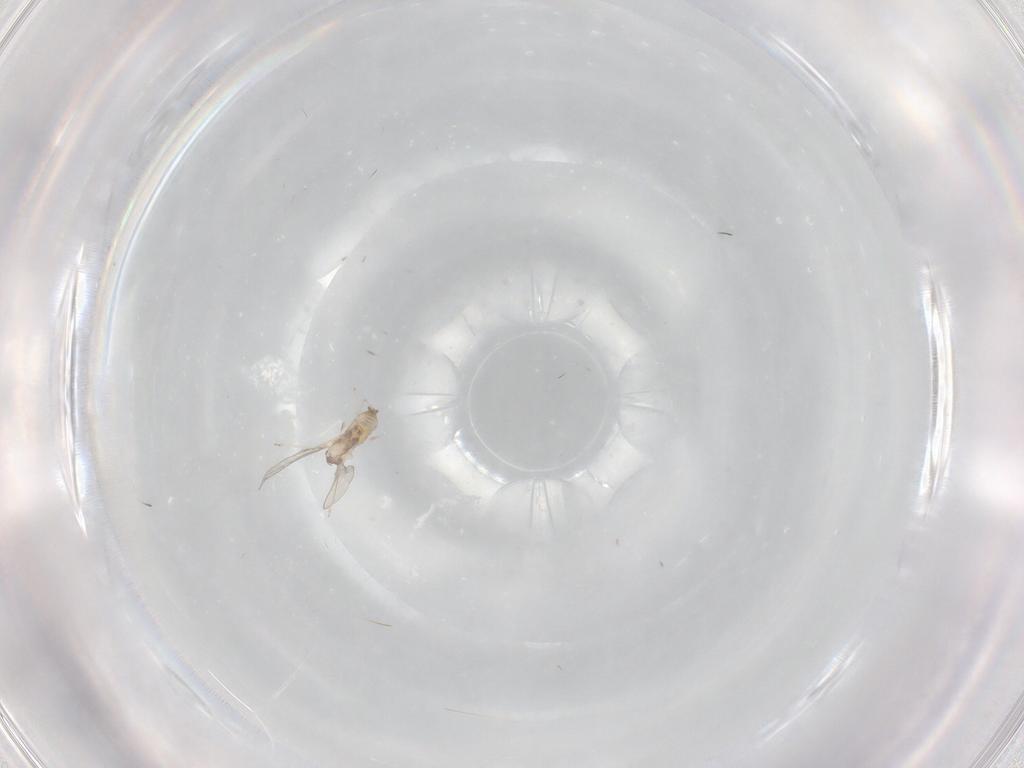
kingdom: Animalia
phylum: Arthropoda
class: Insecta
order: Diptera
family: Cecidomyiidae
